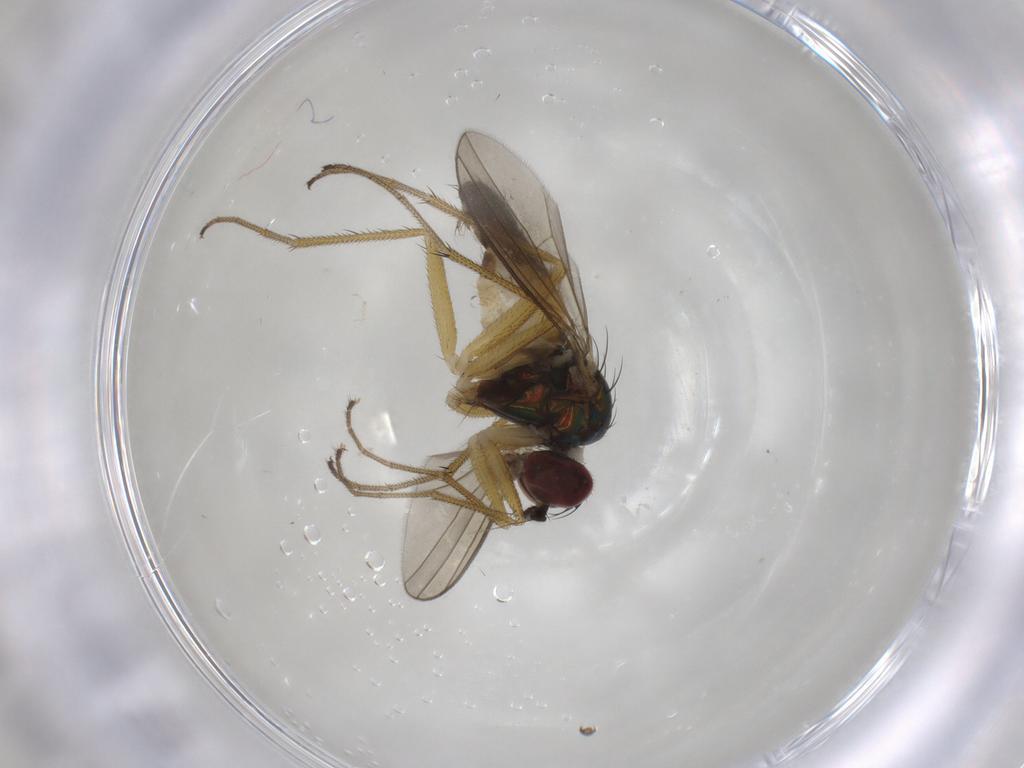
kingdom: Animalia
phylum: Arthropoda
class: Insecta
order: Diptera
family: Dolichopodidae
